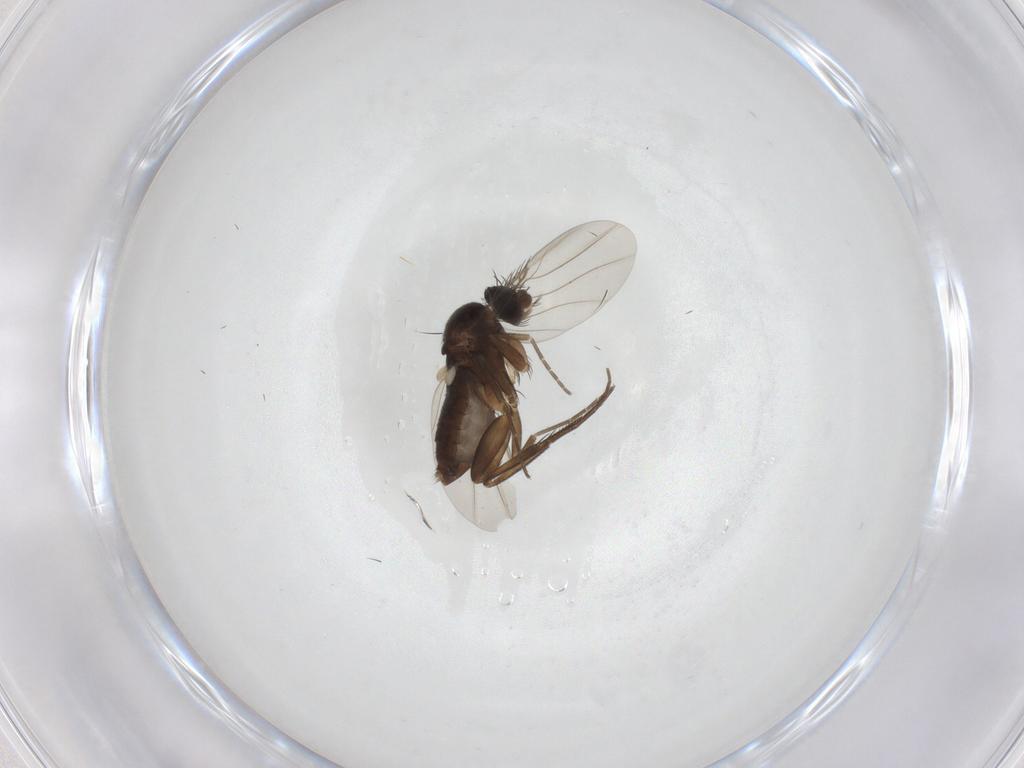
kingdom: Animalia
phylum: Arthropoda
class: Insecta
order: Diptera
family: Phoridae
